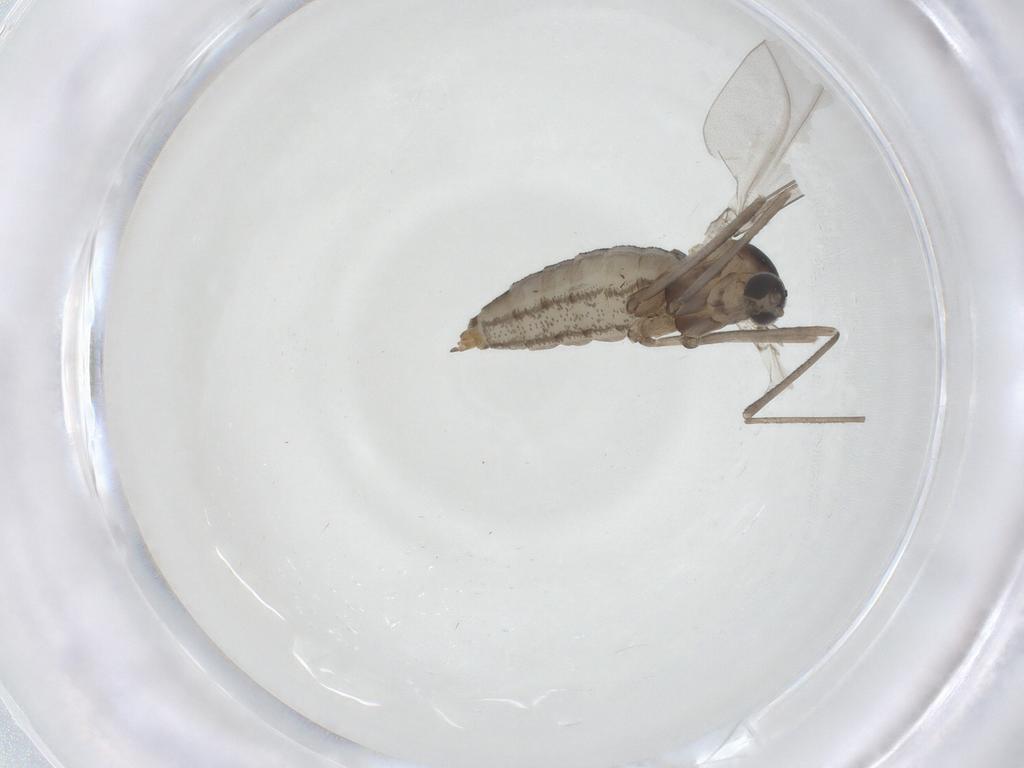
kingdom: Animalia
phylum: Arthropoda
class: Insecta
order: Diptera
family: Cecidomyiidae
